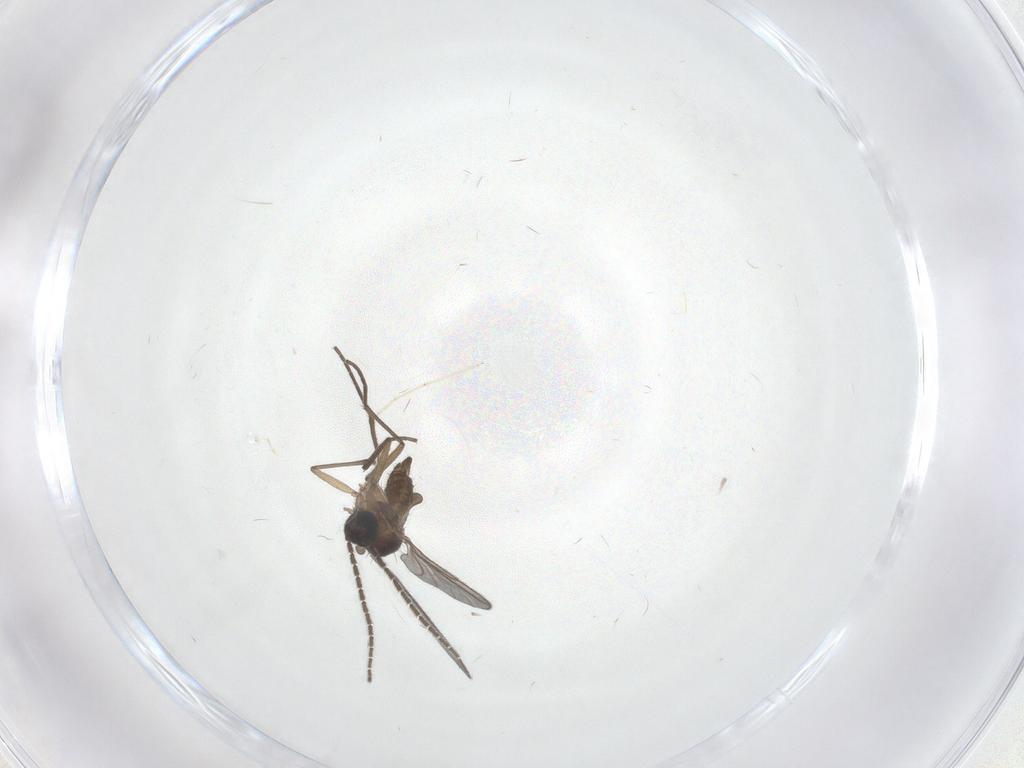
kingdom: Animalia
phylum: Arthropoda
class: Insecta
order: Diptera
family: Sciaridae
